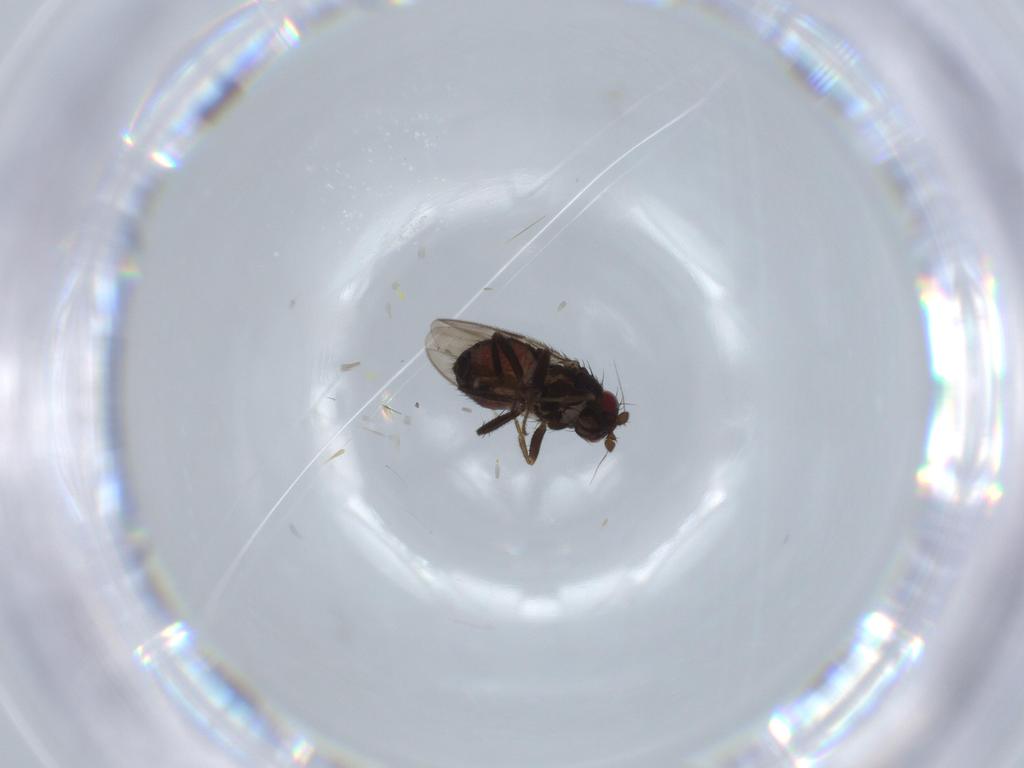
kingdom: Animalia
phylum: Arthropoda
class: Insecta
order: Diptera
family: Sphaeroceridae
